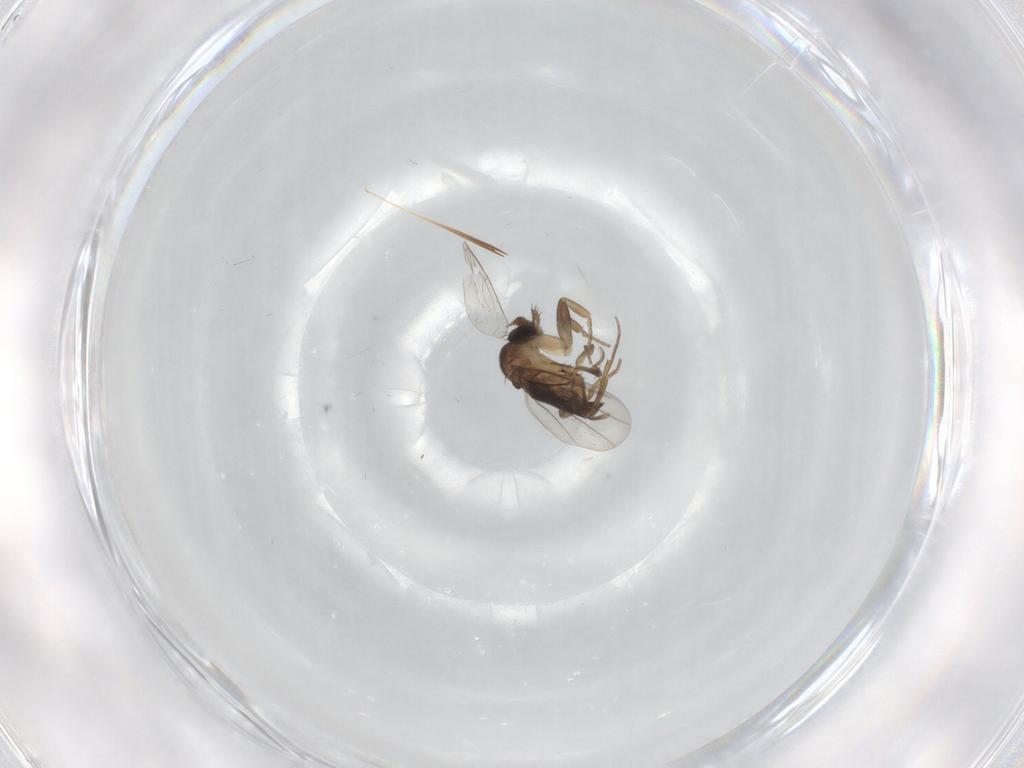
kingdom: Animalia
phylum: Arthropoda
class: Insecta
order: Diptera
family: Phoridae
